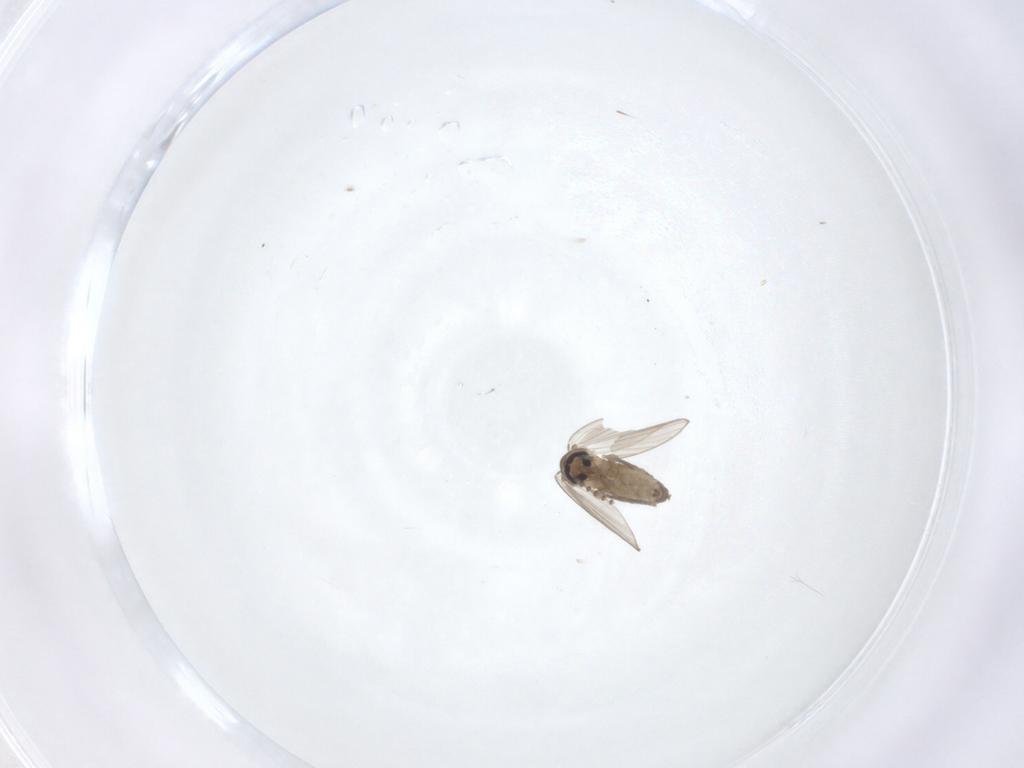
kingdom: Animalia
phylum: Arthropoda
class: Insecta
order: Diptera
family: Psychodidae
